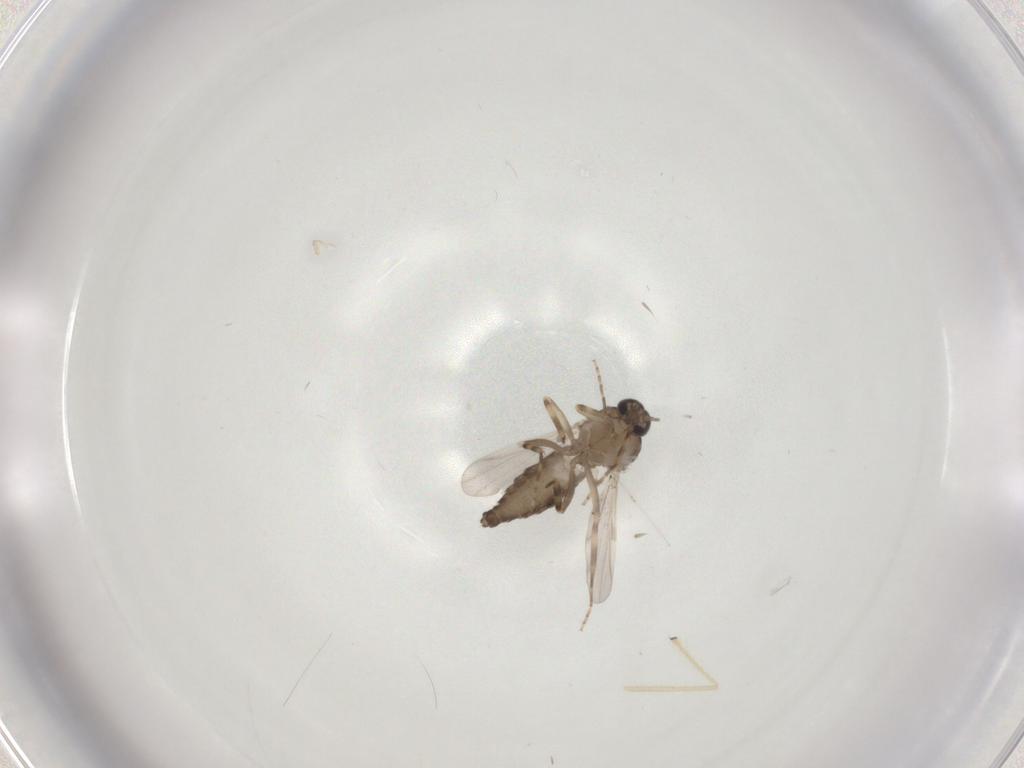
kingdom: Animalia
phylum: Arthropoda
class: Insecta
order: Diptera
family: Ceratopogonidae
